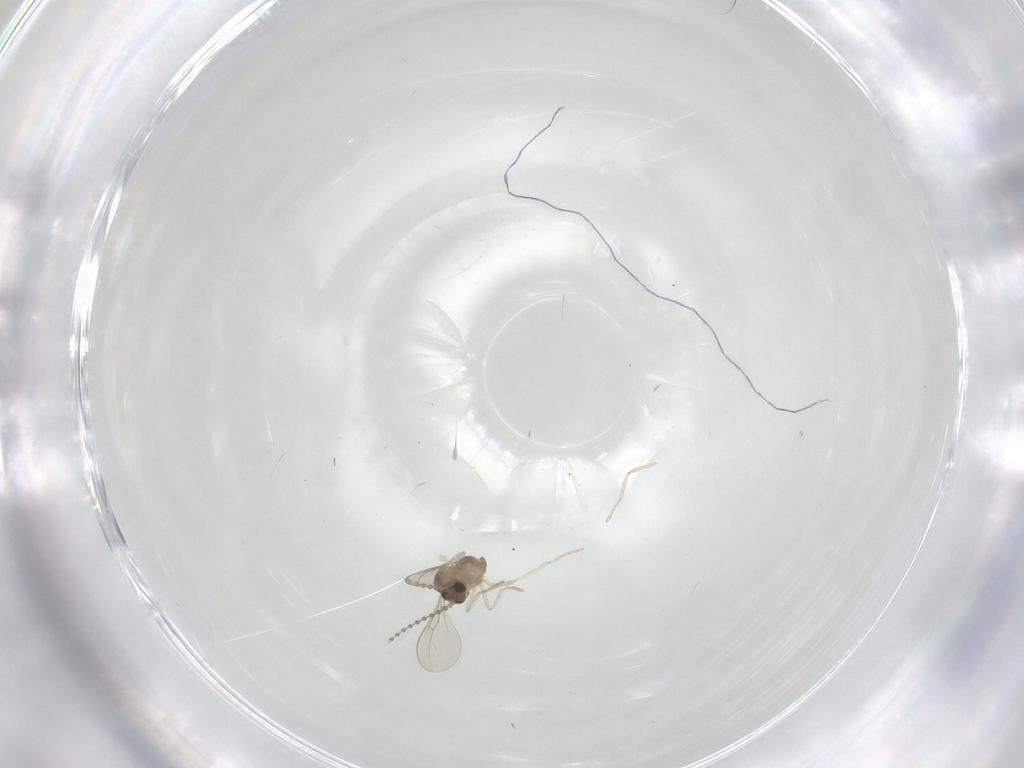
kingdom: Animalia
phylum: Arthropoda
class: Insecta
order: Diptera
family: Cecidomyiidae
